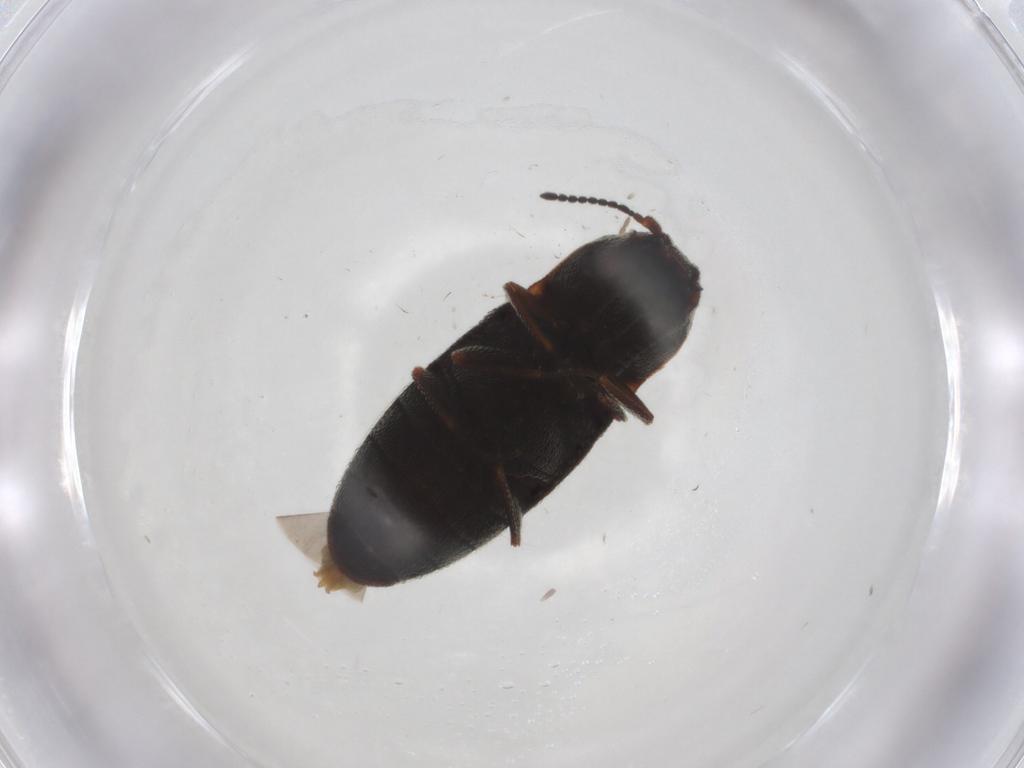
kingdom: Animalia
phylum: Arthropoda
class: Insecta
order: Coleoptera
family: Elateridae
